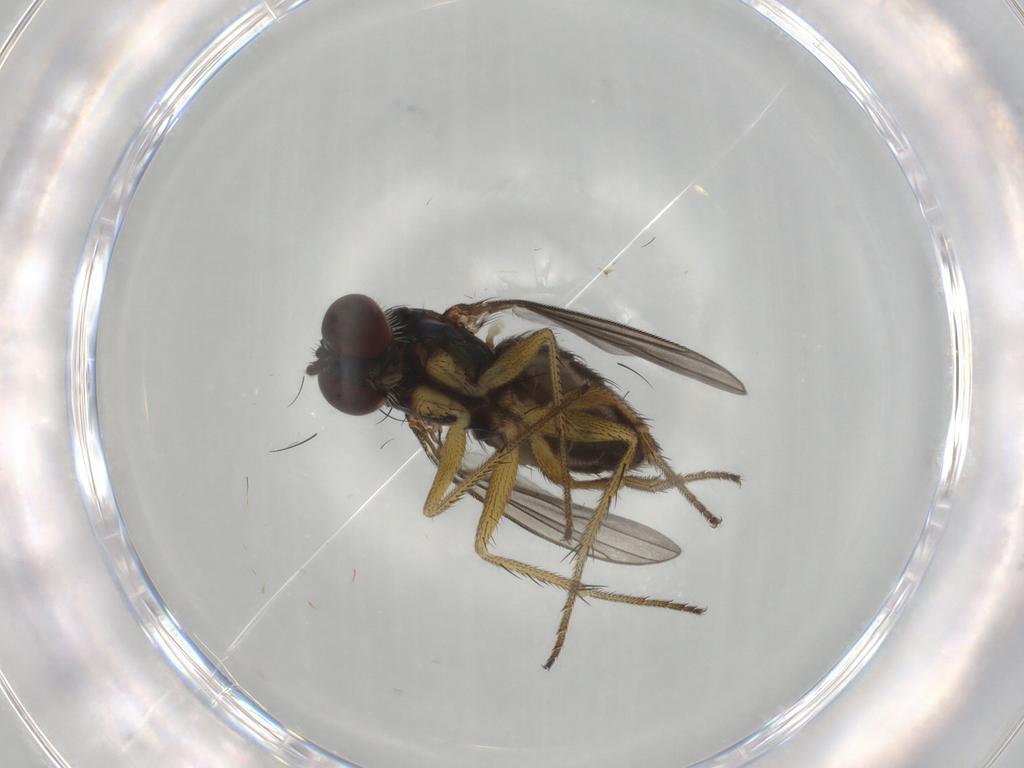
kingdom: Animalia
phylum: Arthropoda
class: Insecta
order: Diptera
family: Dolichopodidae
